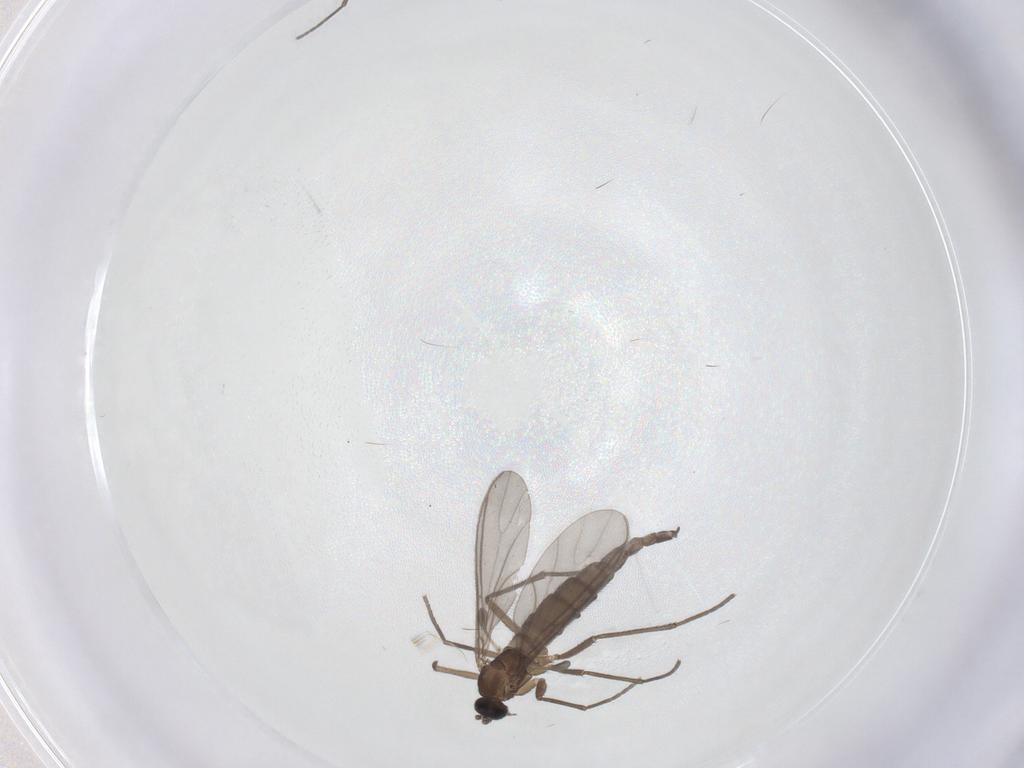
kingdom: Animalia
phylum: Arthropoda
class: Insecta
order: Diptera
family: Sciaridae
